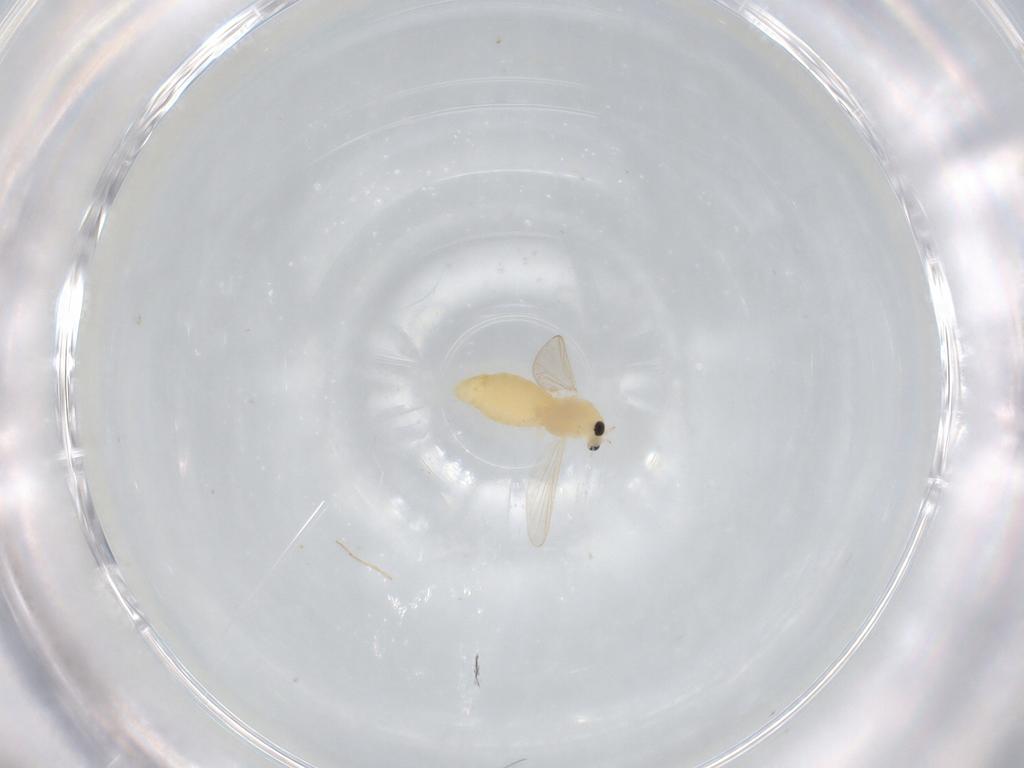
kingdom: Animalia
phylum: Arthropoda
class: Insecta
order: Diptera
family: Chironomidae
